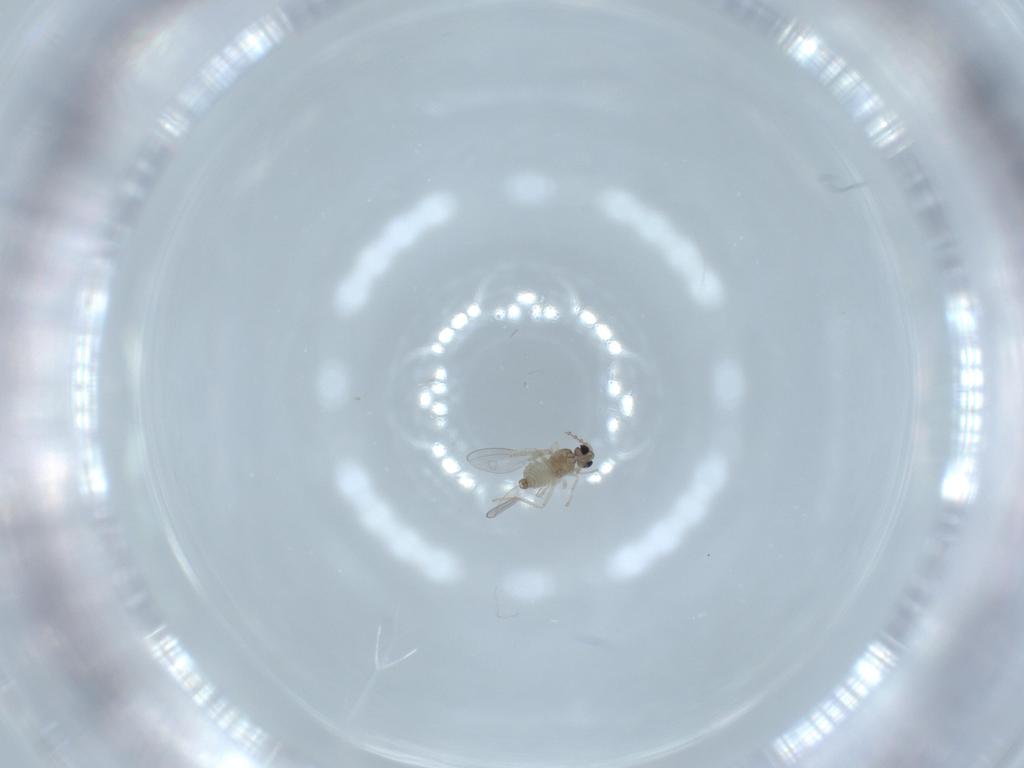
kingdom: Animalia
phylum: Arthropoda
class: Insecta
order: Diptera
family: Cecidomyiidae
